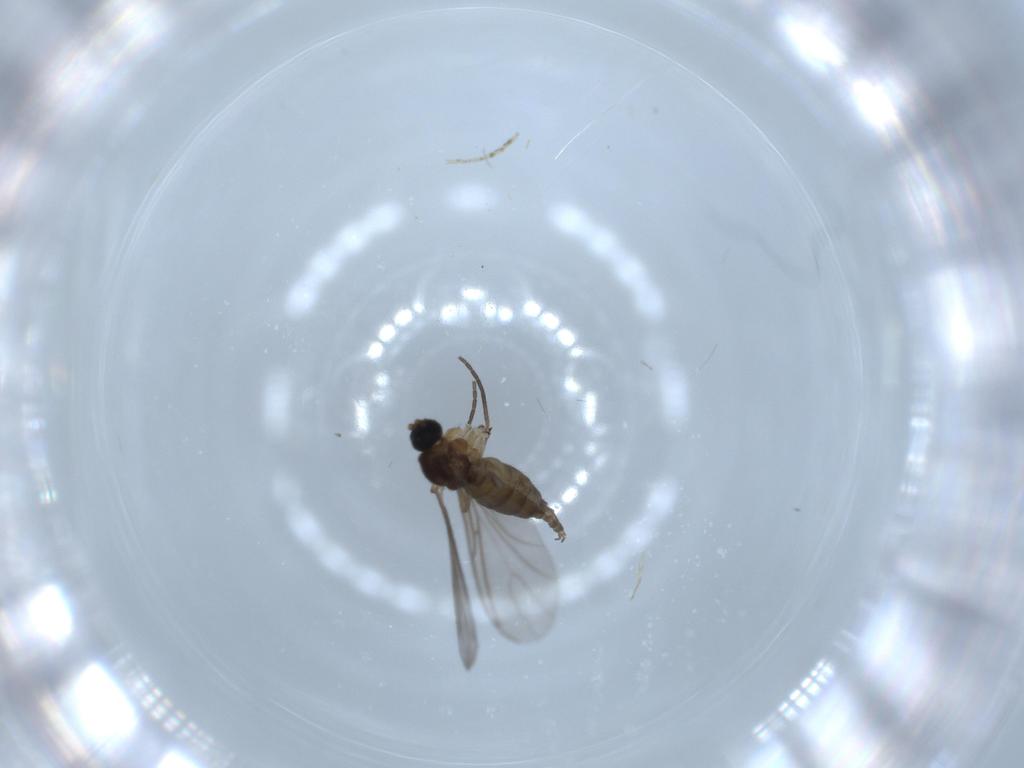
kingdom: Animalia
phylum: Arthropoda
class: Insecta
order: Diptera
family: Sciaridae
